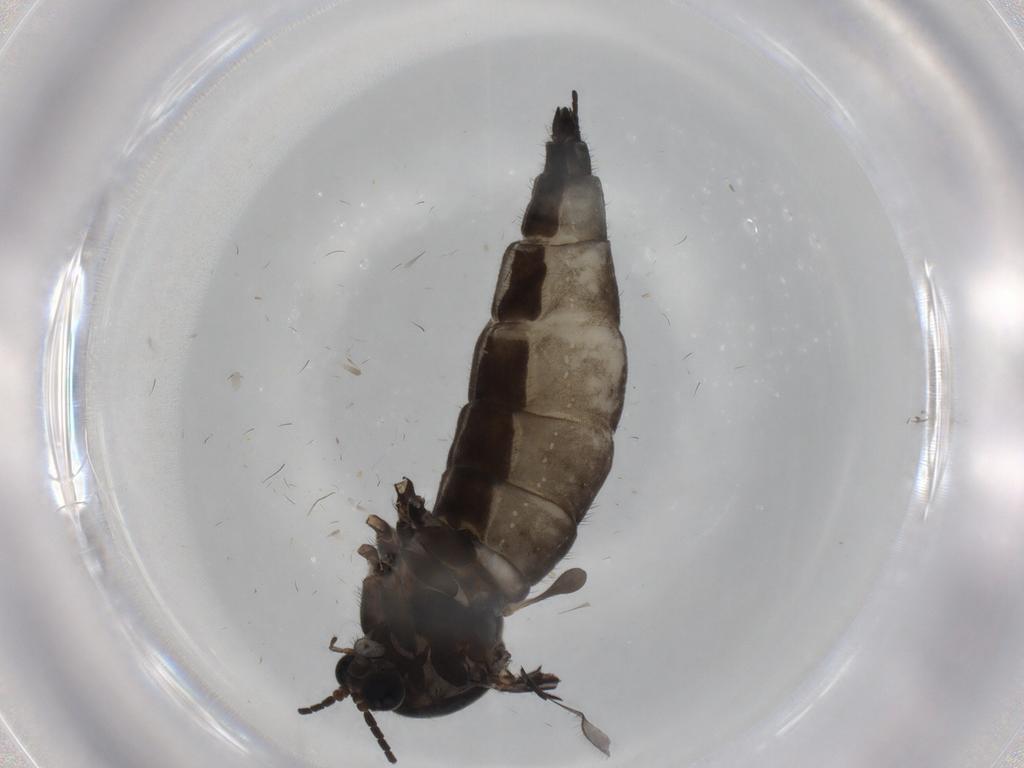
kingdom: Animalia
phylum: Arthropoda
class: Insecta
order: Diptera
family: Sciaridae
